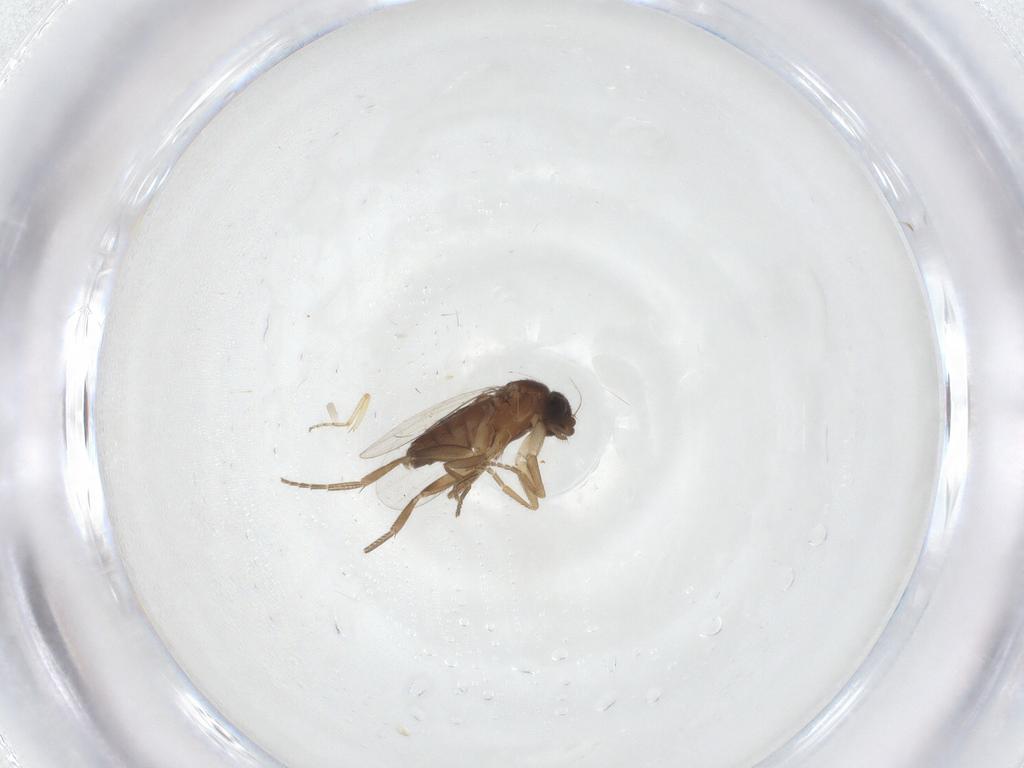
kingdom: Animalia
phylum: Arthropoda
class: Insecta
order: Diptera
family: Phoridae
